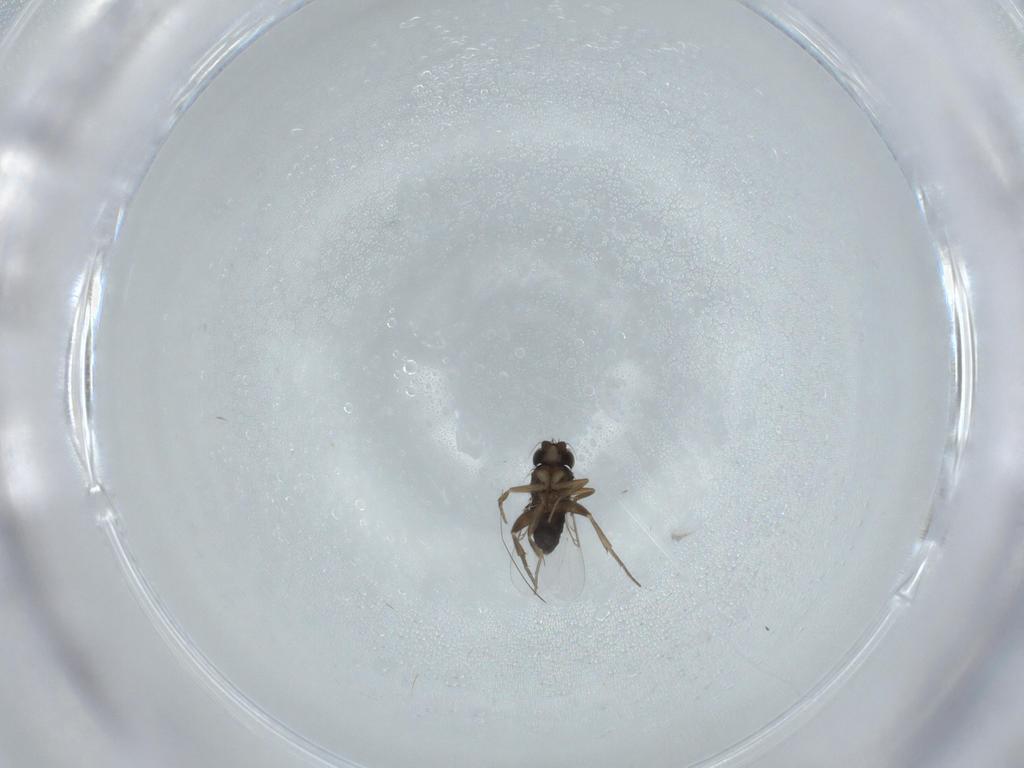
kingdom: Animalia
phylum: Arthropoda
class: Insecta
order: Diptera
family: Phoridae
